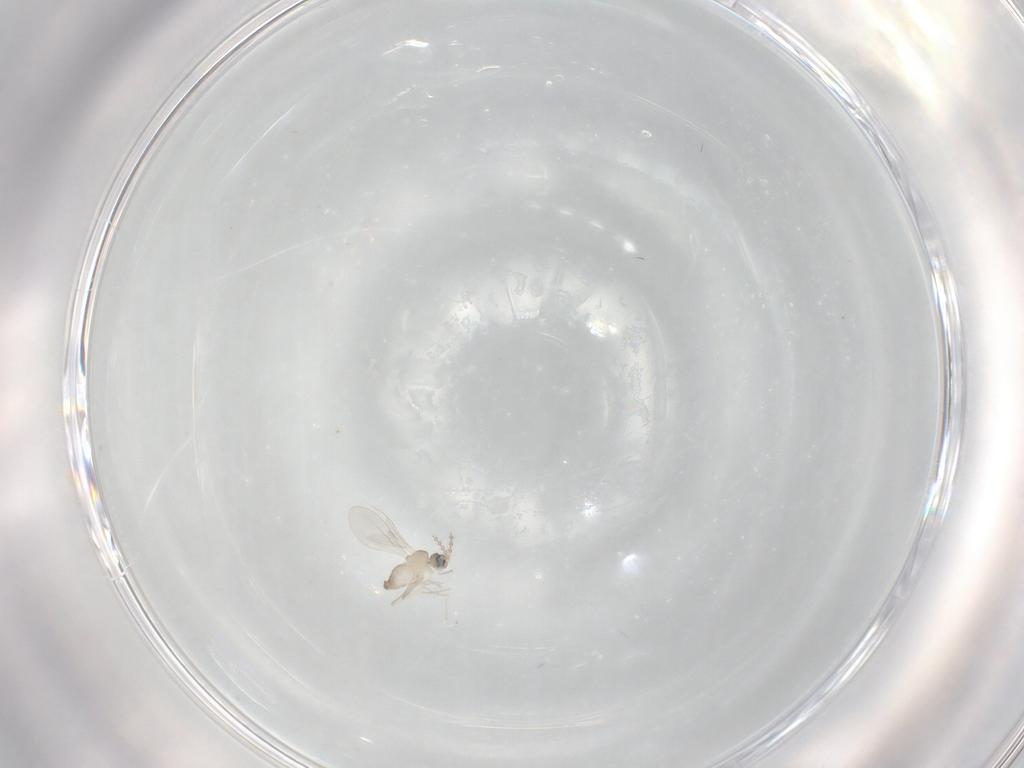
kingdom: Animalia
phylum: Arthropoda
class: Insecta
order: Diptera
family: Cecidomyiidae
